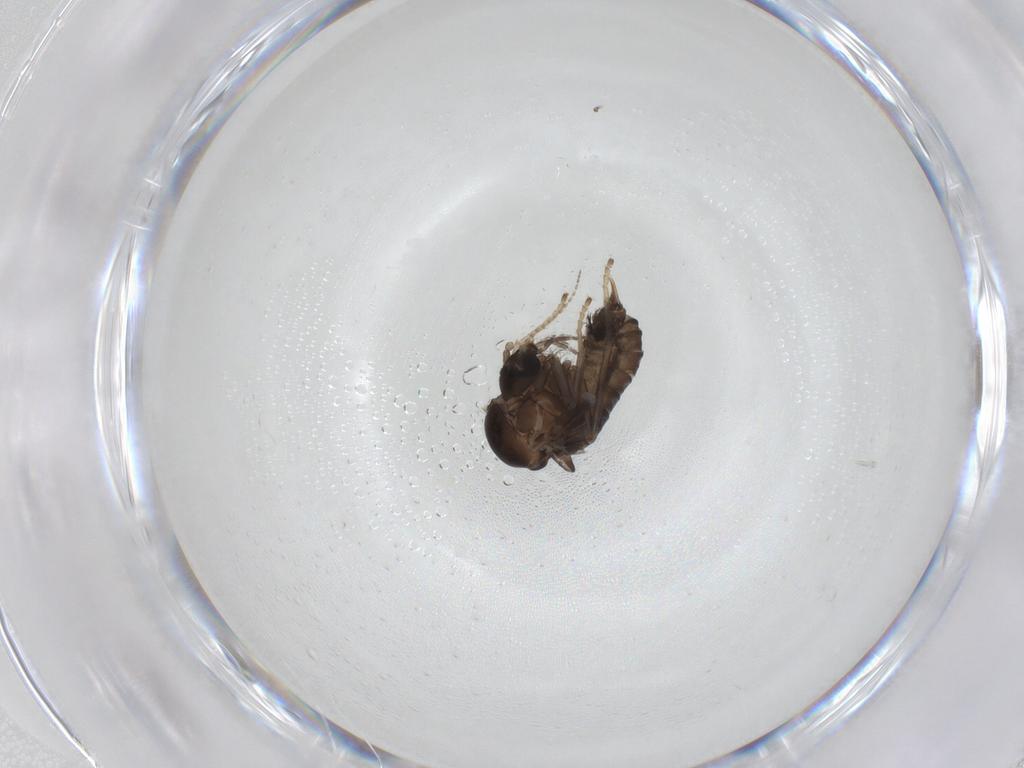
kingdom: Animalia
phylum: Arthropoda
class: Insecta
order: Diptera
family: Psychodidae
